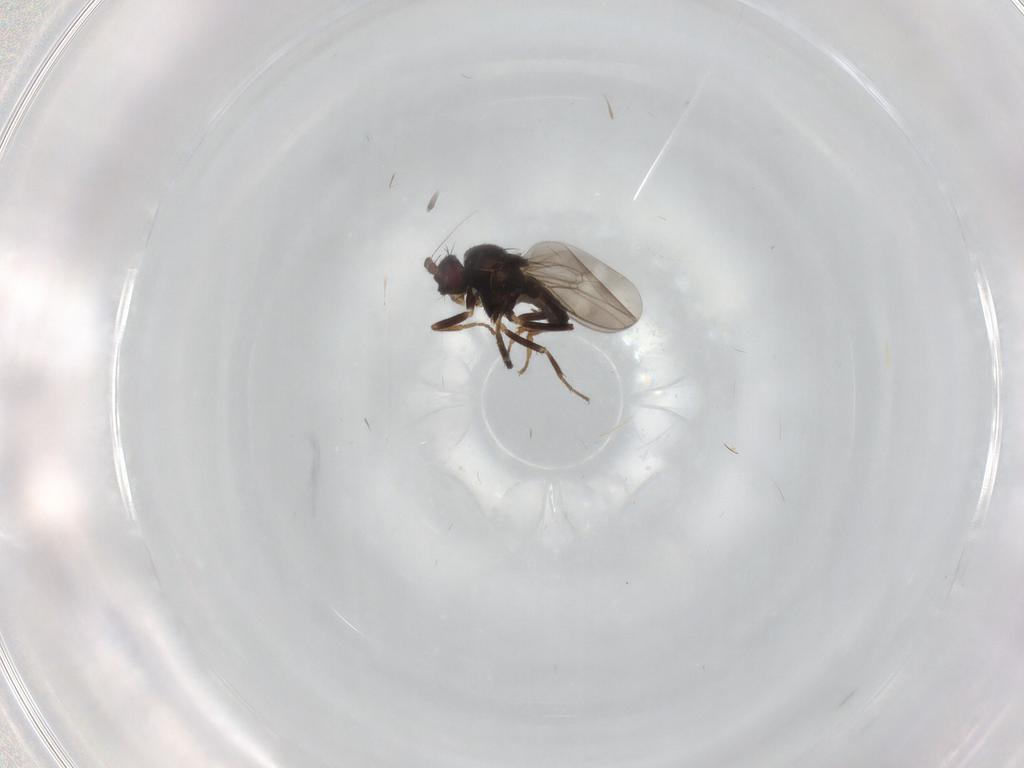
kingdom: Animalia
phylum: Arthropoda
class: Insecta
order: Diptera
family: Sphaeroceridae
